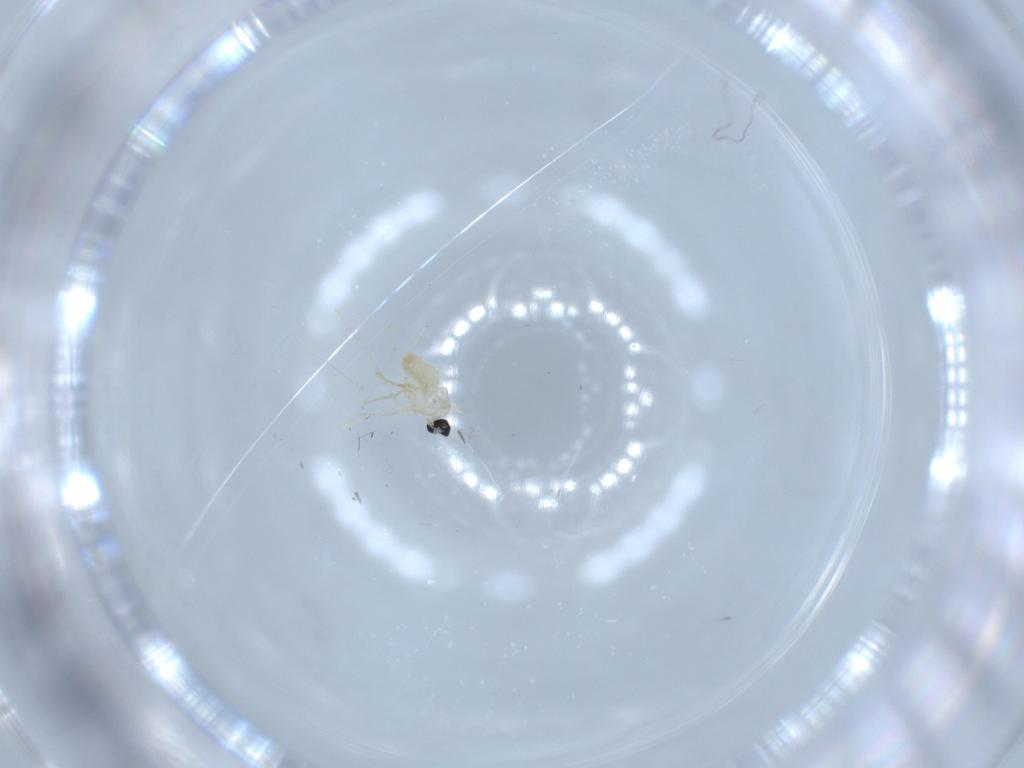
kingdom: Animalia
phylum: Arthropoda
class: Insecta
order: Diptera
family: Cecidomyiidae
